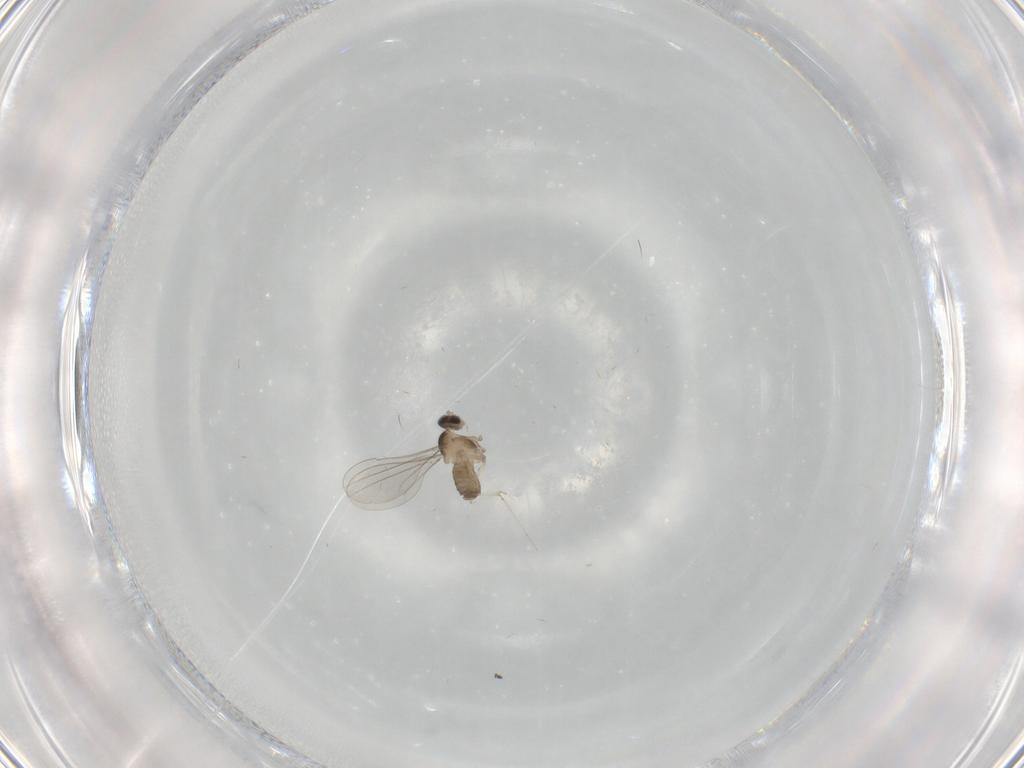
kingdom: Animalia
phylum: Arthropoda
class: Insecta
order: Diptera
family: Cecidomyiidae
